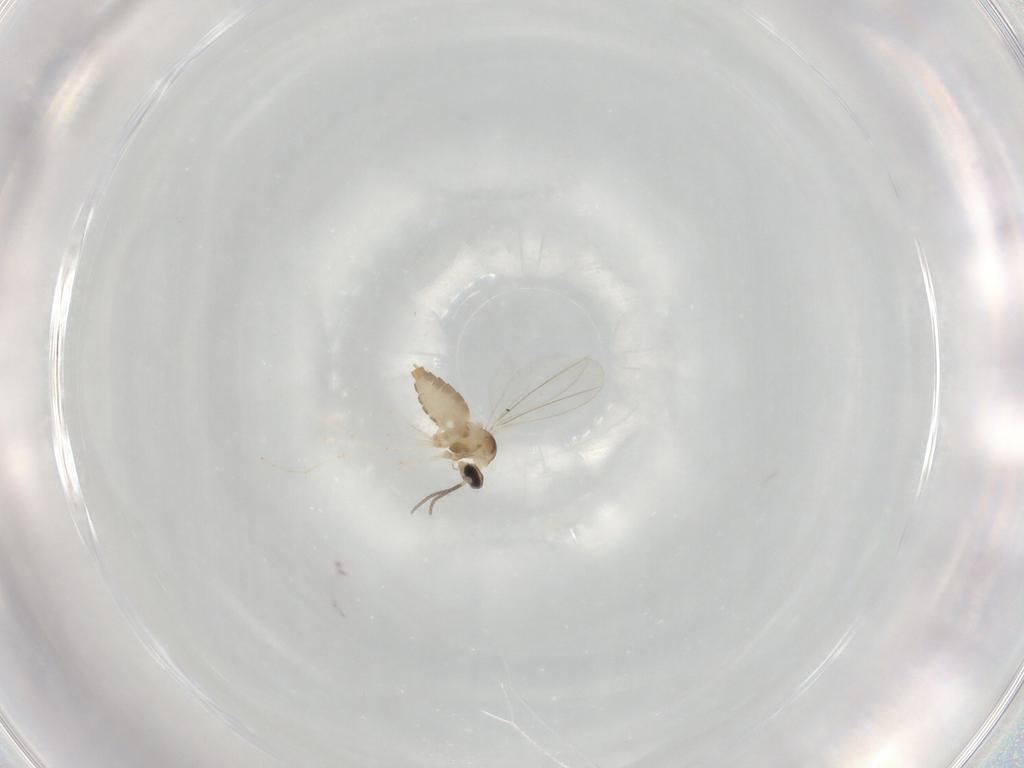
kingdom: Animalia
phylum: Arthropoda
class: Insecta
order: Diptera
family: Cecidomyiidae
